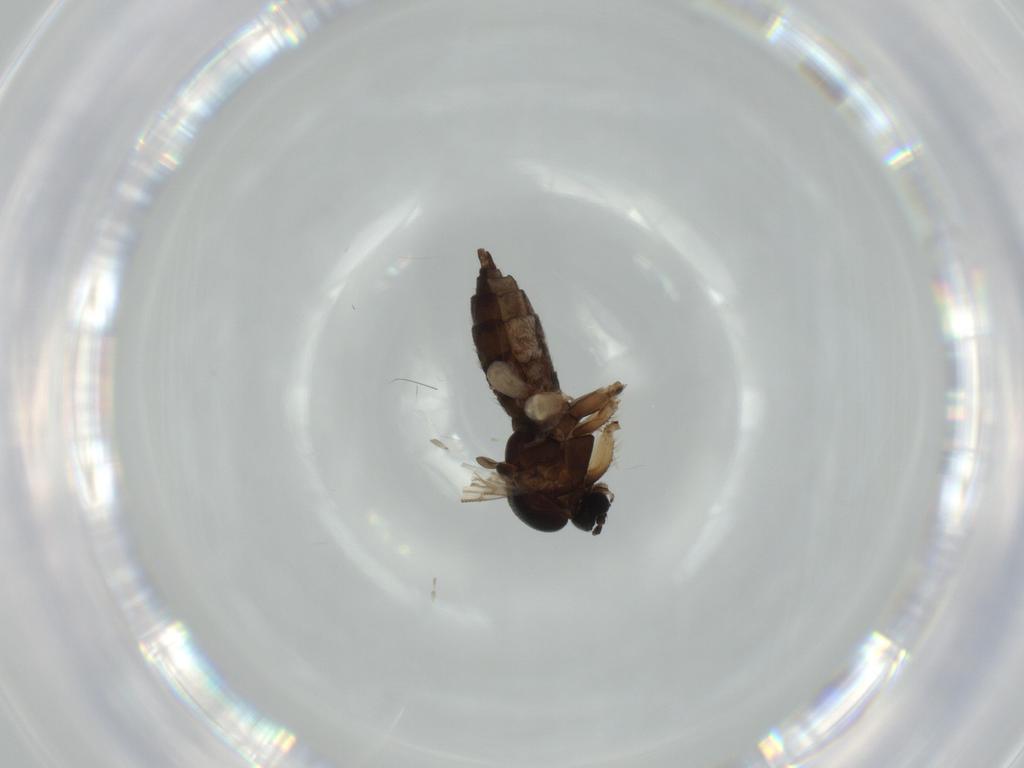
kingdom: Animalia
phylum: Arthropoda
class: Insecta
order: Diptera
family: Sciaridae
